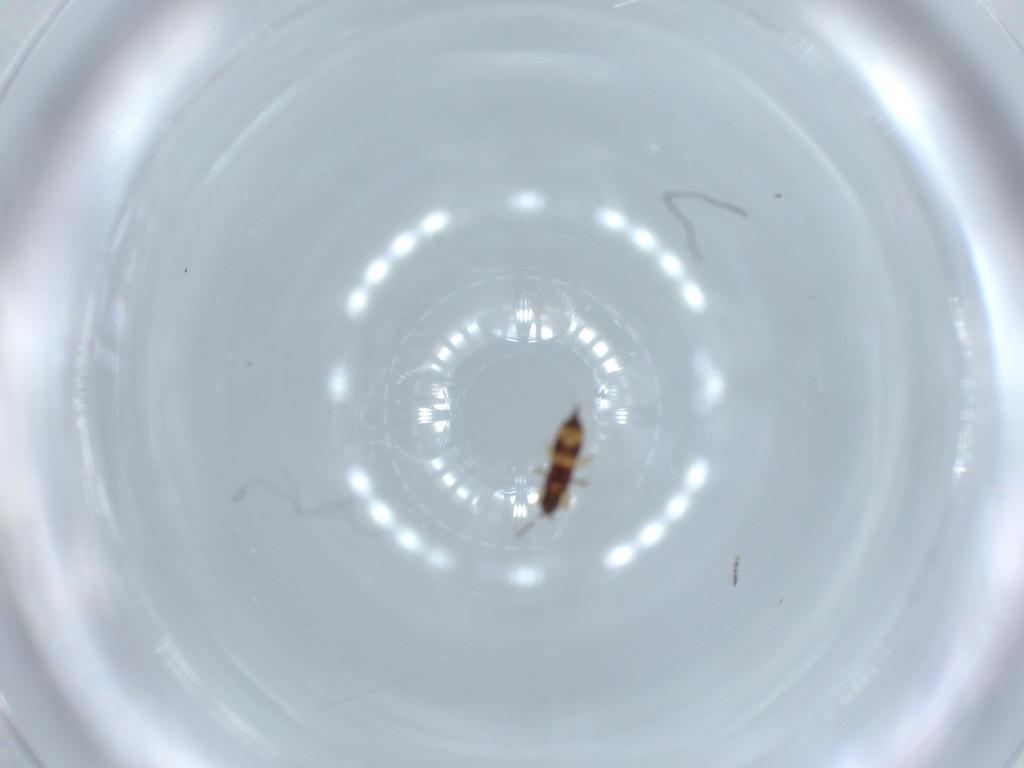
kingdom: Animalia
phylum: Arthropoda
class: Insecta
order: Thysanoptera
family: Phlaeothripidae
